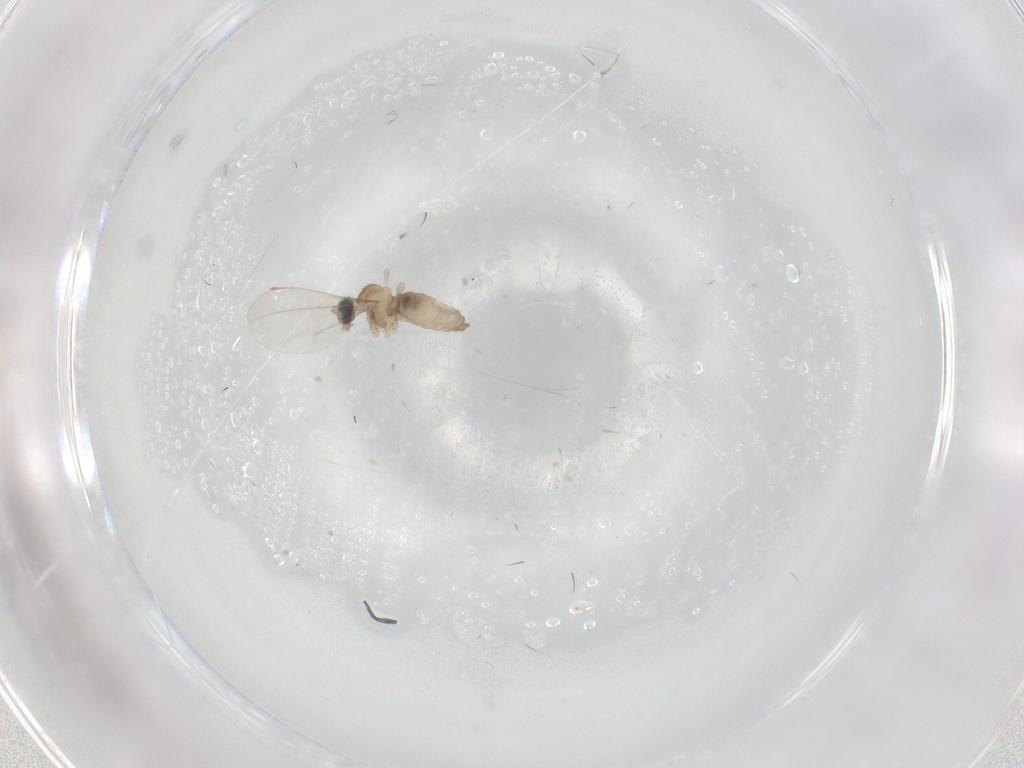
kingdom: Animalia
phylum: Arthropoda
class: Insecta
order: Diptera
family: Cecidomyiidae
